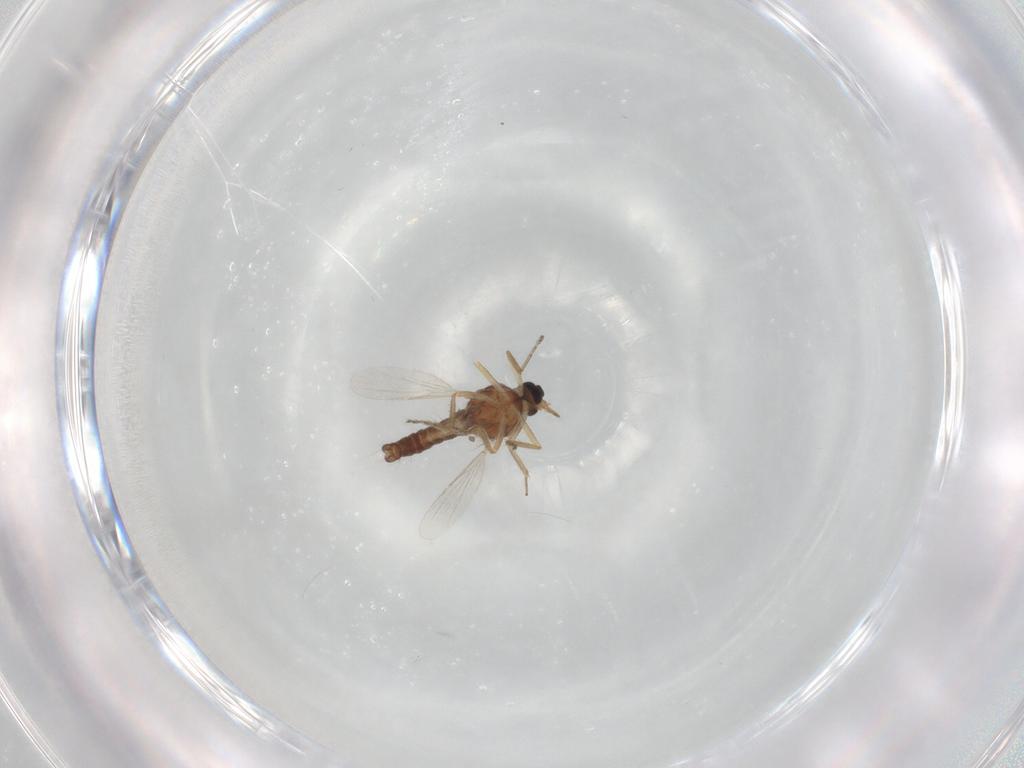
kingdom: Animalia
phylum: Arthropoda
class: Insecta
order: Diptera
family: Ceratopogonidae
